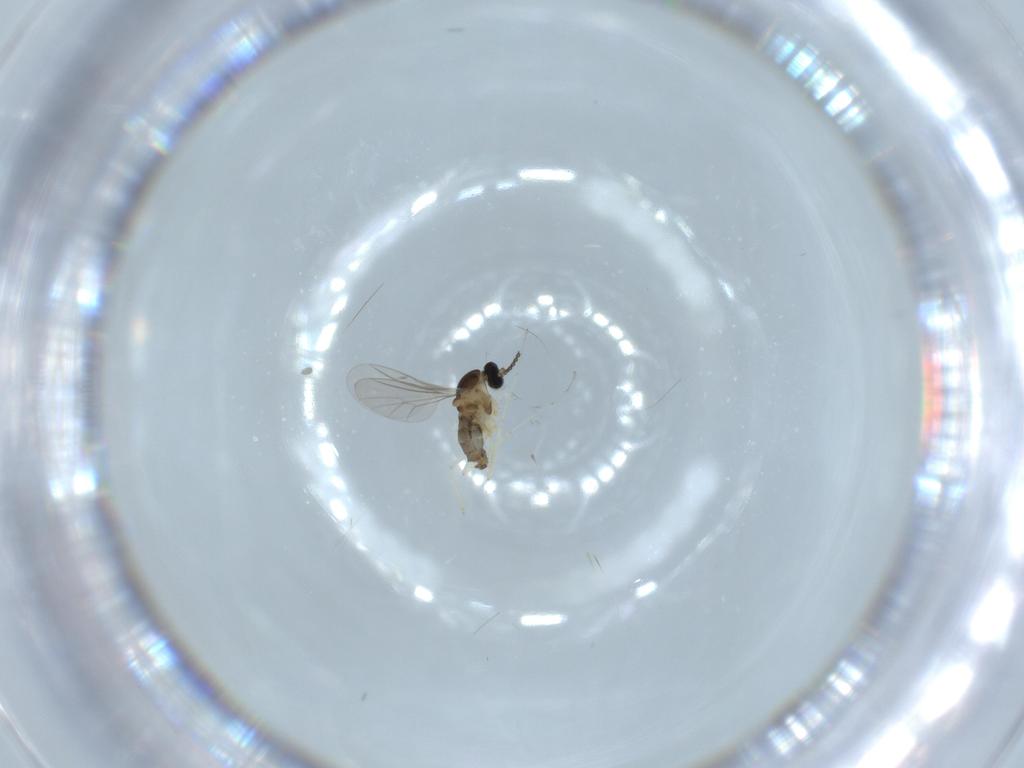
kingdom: Animalia
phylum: Arthropoda
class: Insecta
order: Diptera
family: Cecidomyiidae
